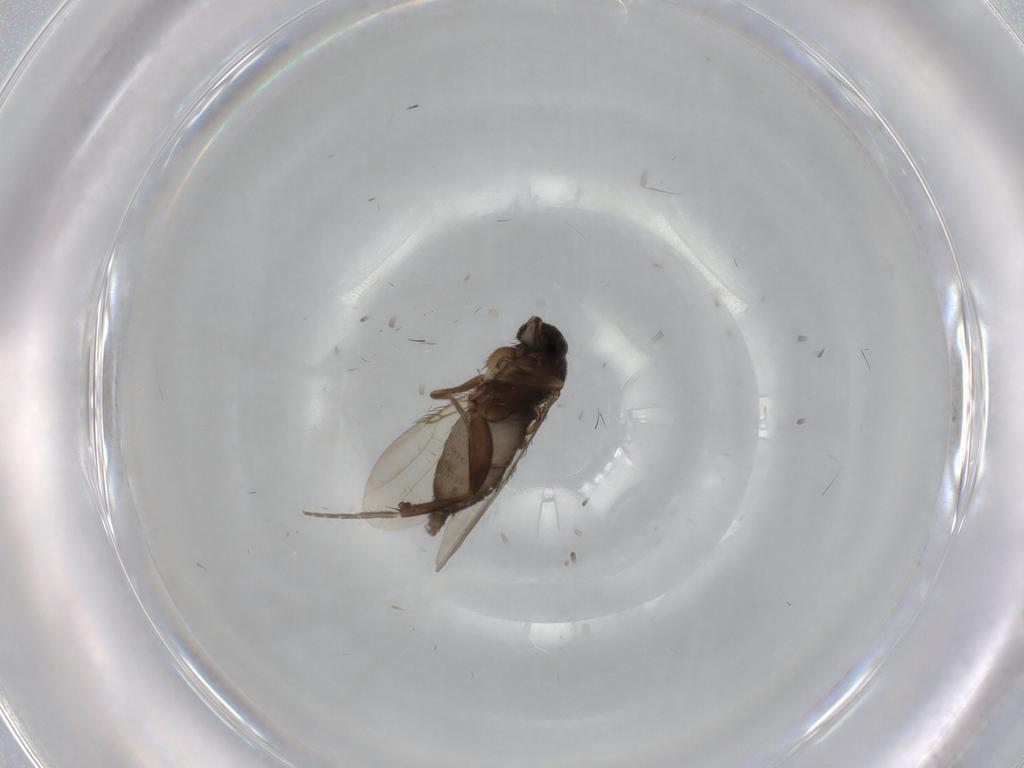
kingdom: Animalia
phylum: Arthropoda
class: Insecta
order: Diptera
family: Phoridae
